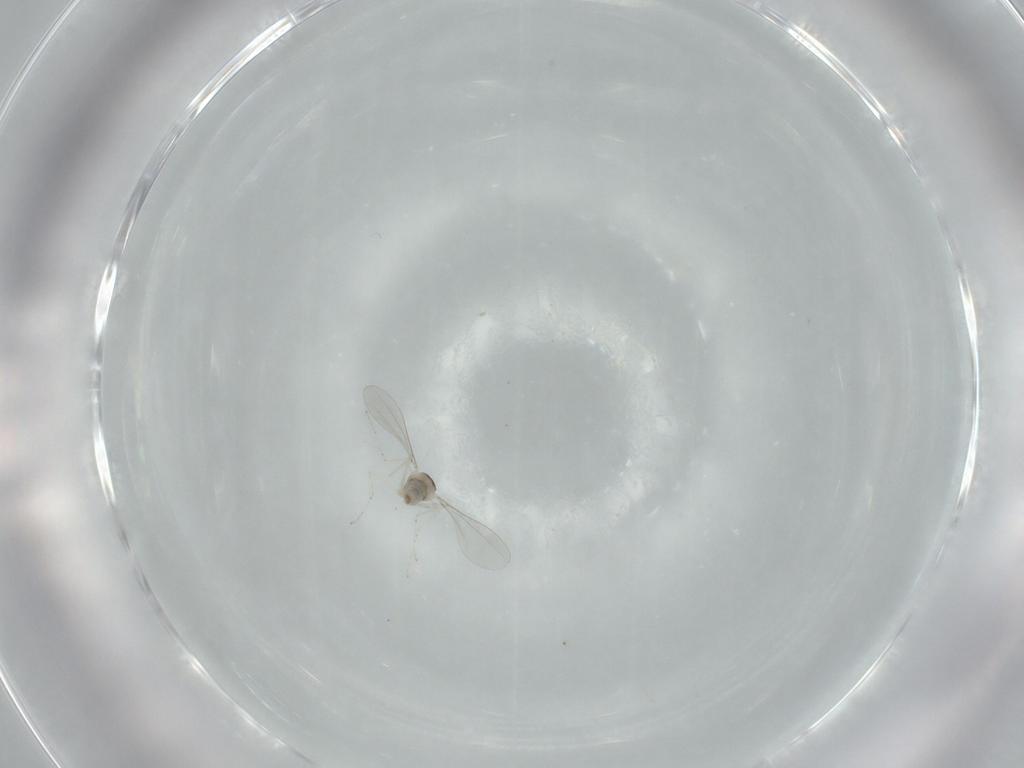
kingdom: Animalia
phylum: Arthropoda
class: Insecta
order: Diptera
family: Cecidomyiidae
